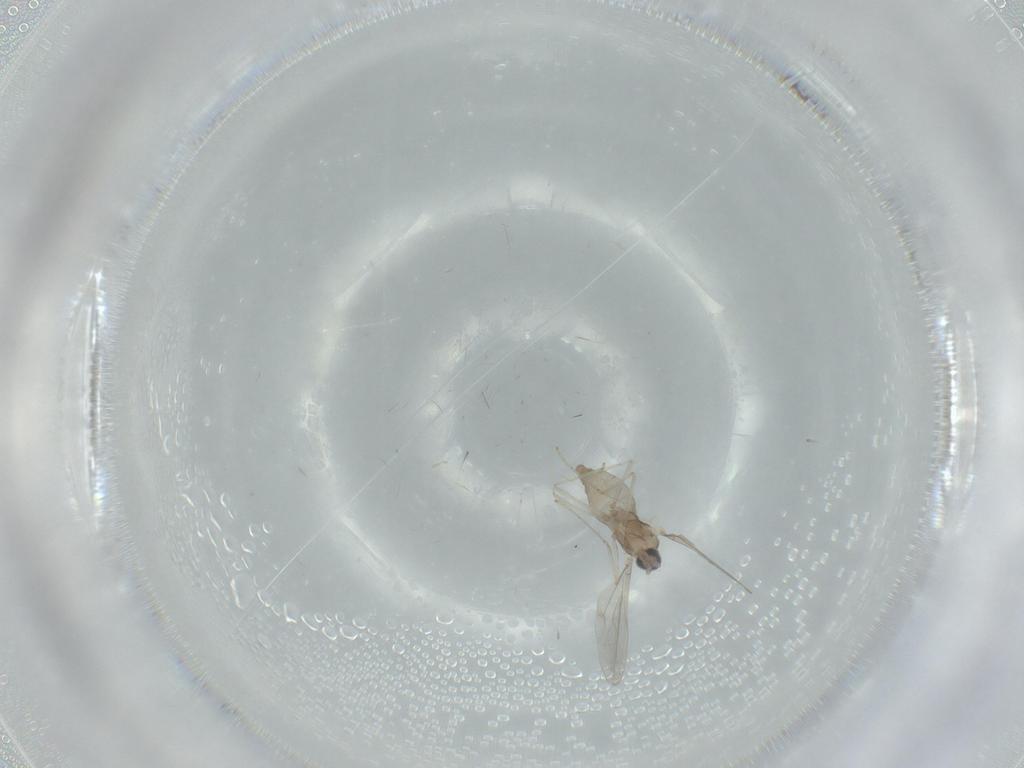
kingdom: Animalia
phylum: Arthropoda
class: Insecta
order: Diptera
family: Cecidomyiidae
